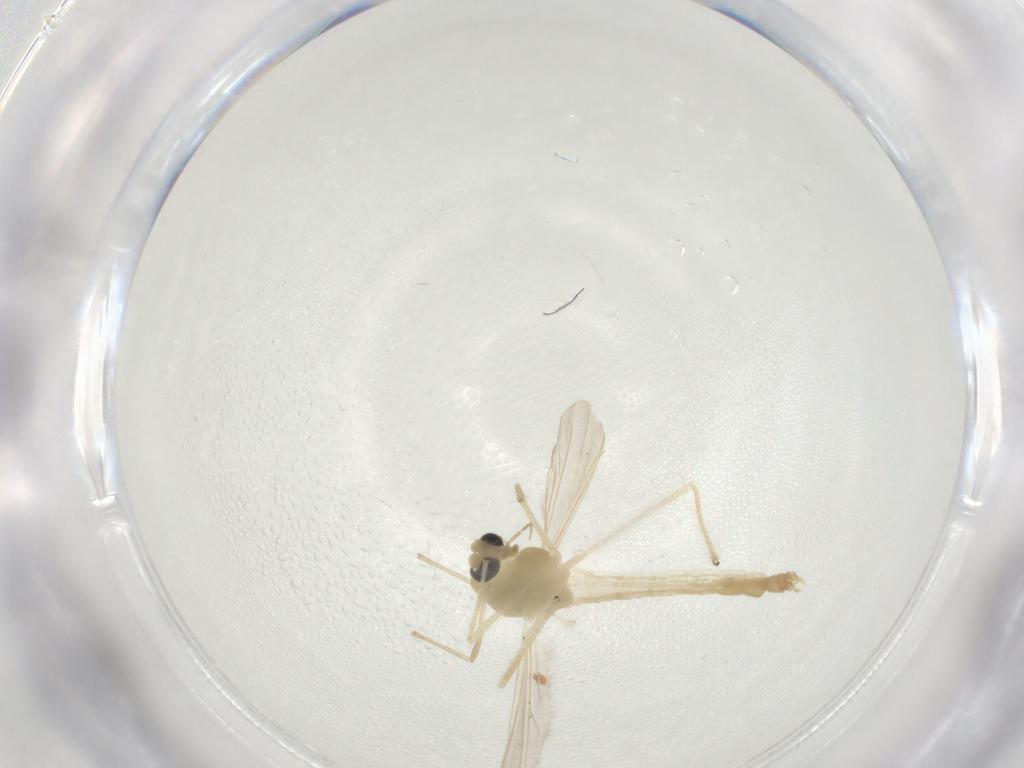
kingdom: Animalia
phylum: Arthropoda
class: Insecta
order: Diptera
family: Chironomidae
